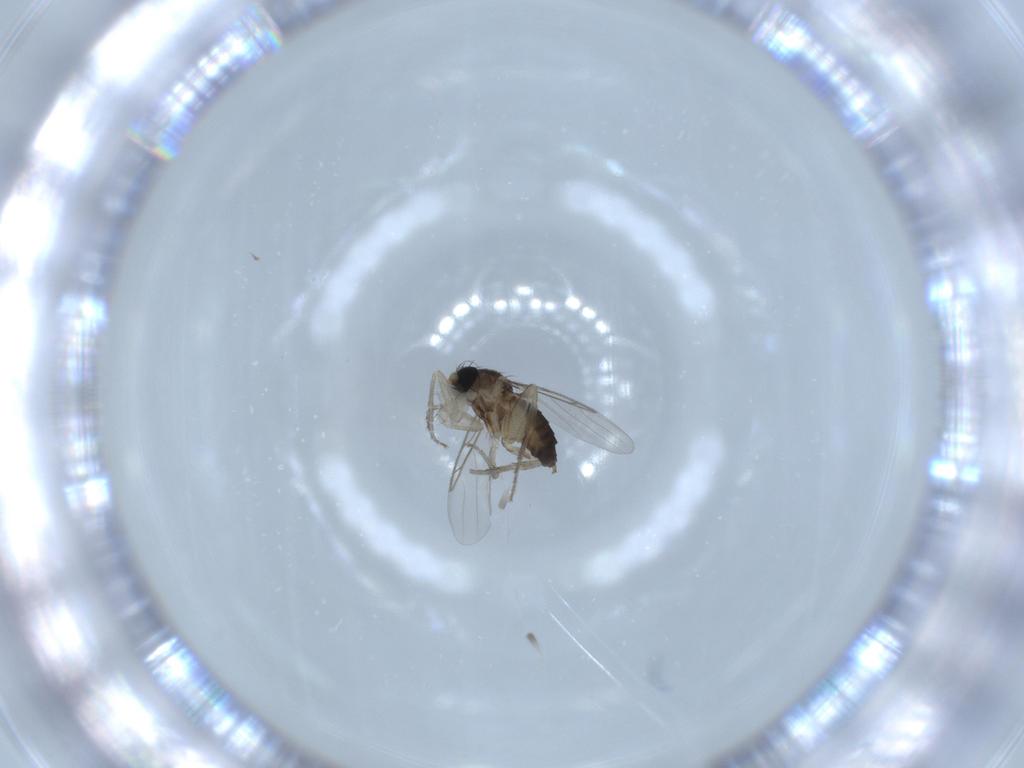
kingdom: Animalia
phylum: Arthropoda
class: Insecta
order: Diptera
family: Phoridae
